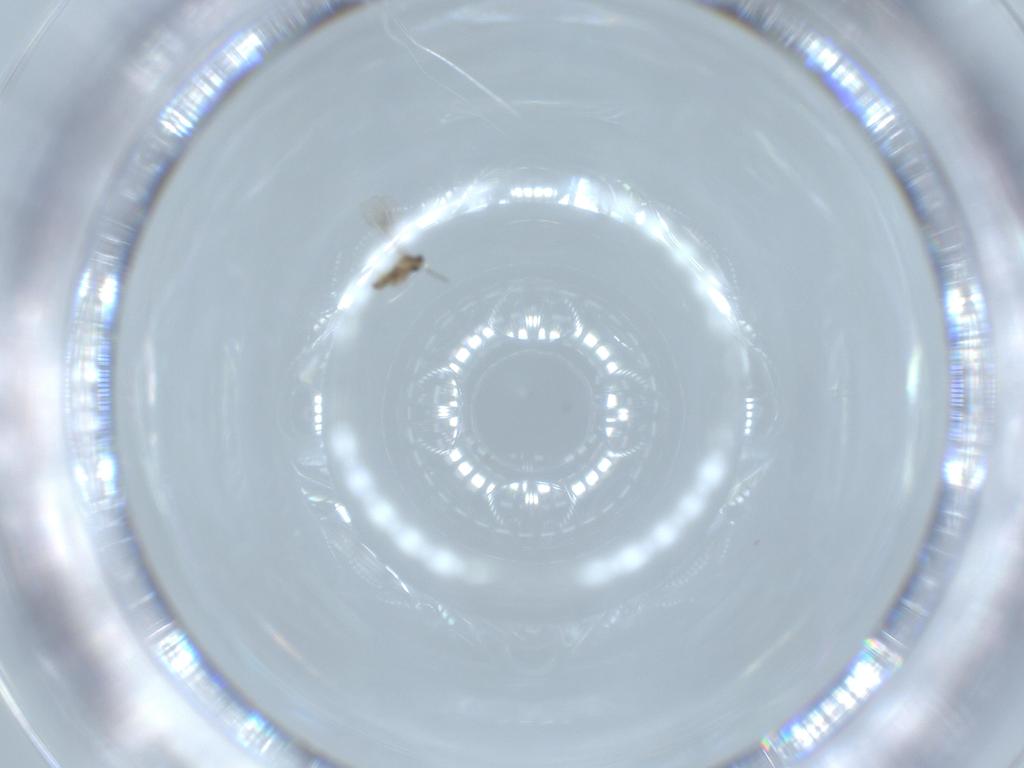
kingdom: Animalia
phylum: Arthropoda
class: Insecta
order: Diptera
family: Cecidomyiidae
